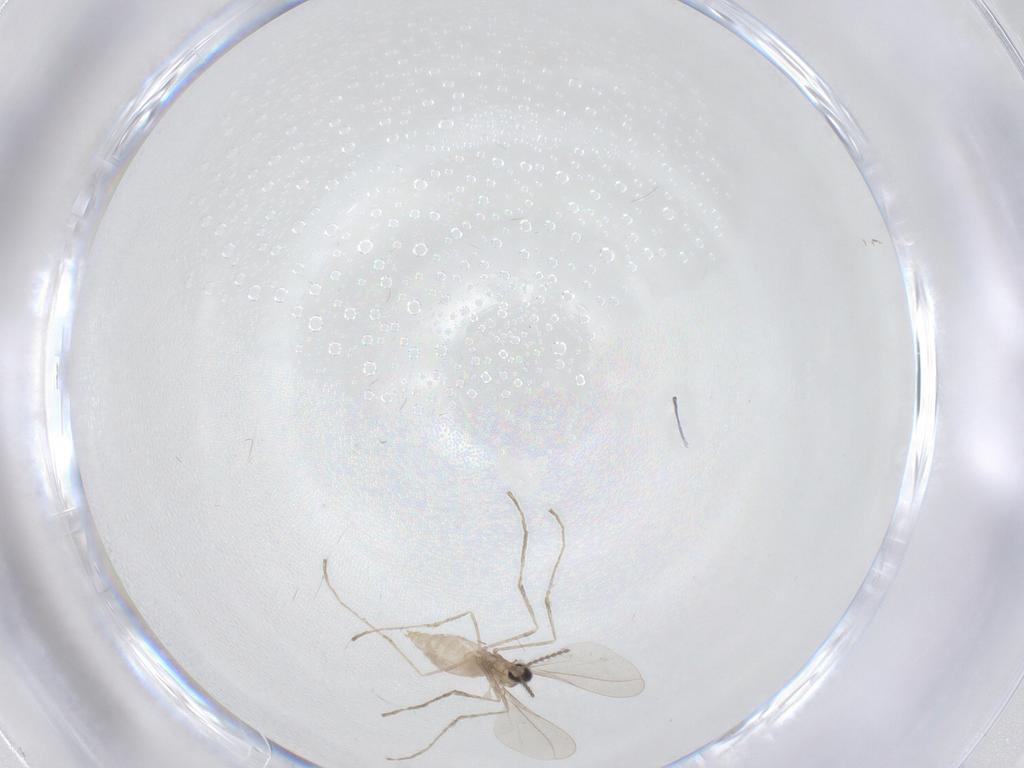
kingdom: Animalia
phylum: Arthropoda
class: Insecta
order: Diptera
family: Cecidomyiidae
